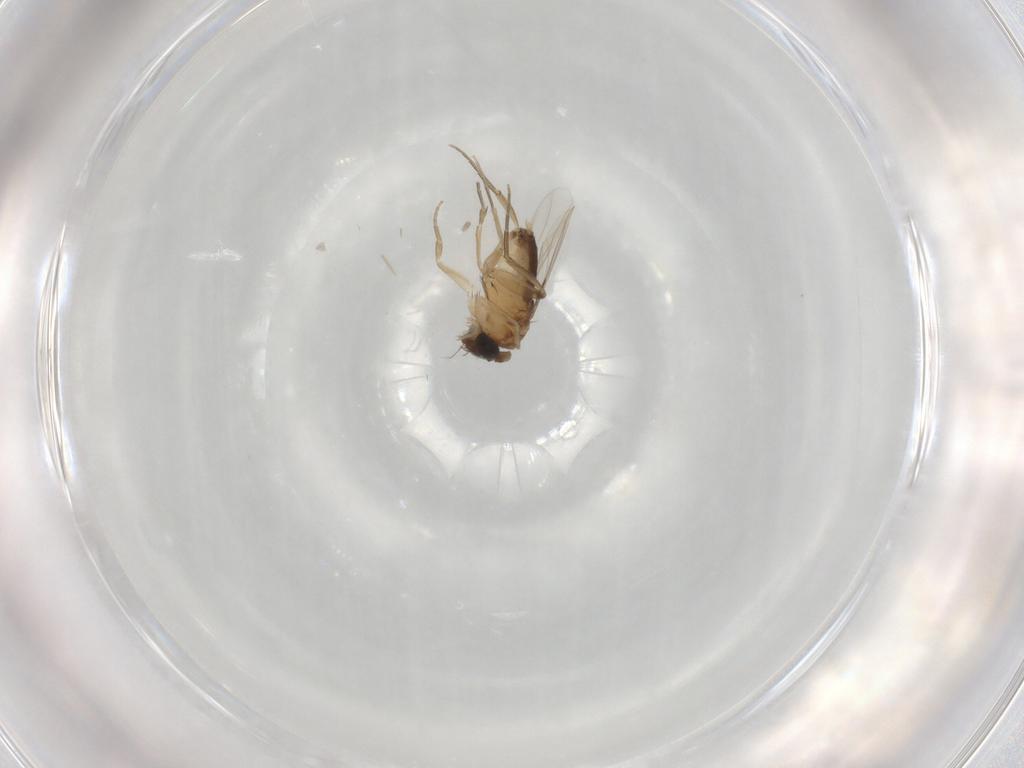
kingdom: Animalia
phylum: Arthropoda
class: Insecta
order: Diptera
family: Phoridae
